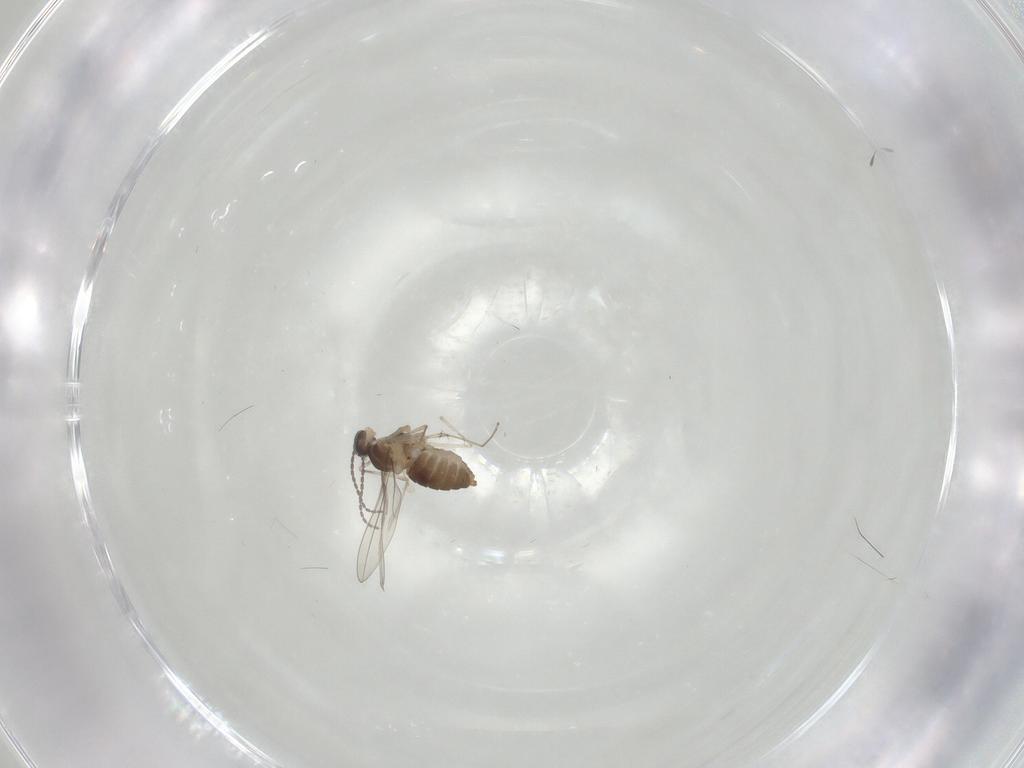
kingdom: Animalia
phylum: Arthropoda
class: Insecta
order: Diptera
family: Cecidomyiidae
